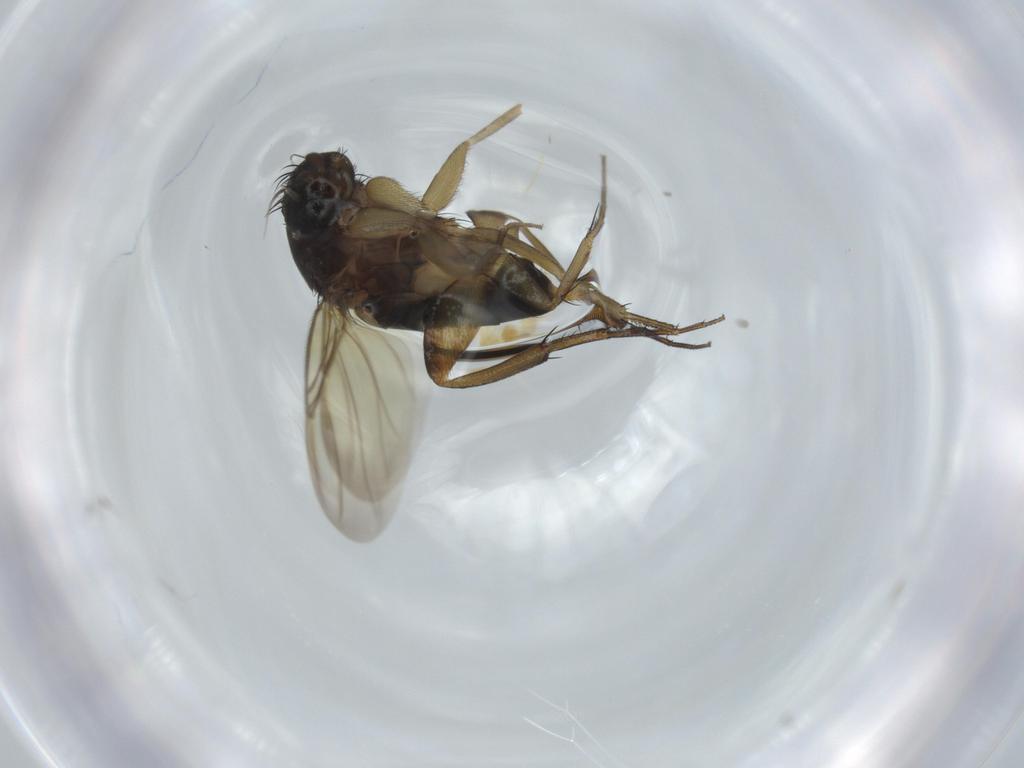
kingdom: Animalia
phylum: Arthropoda
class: Insecta
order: Diptera
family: Phoridae
